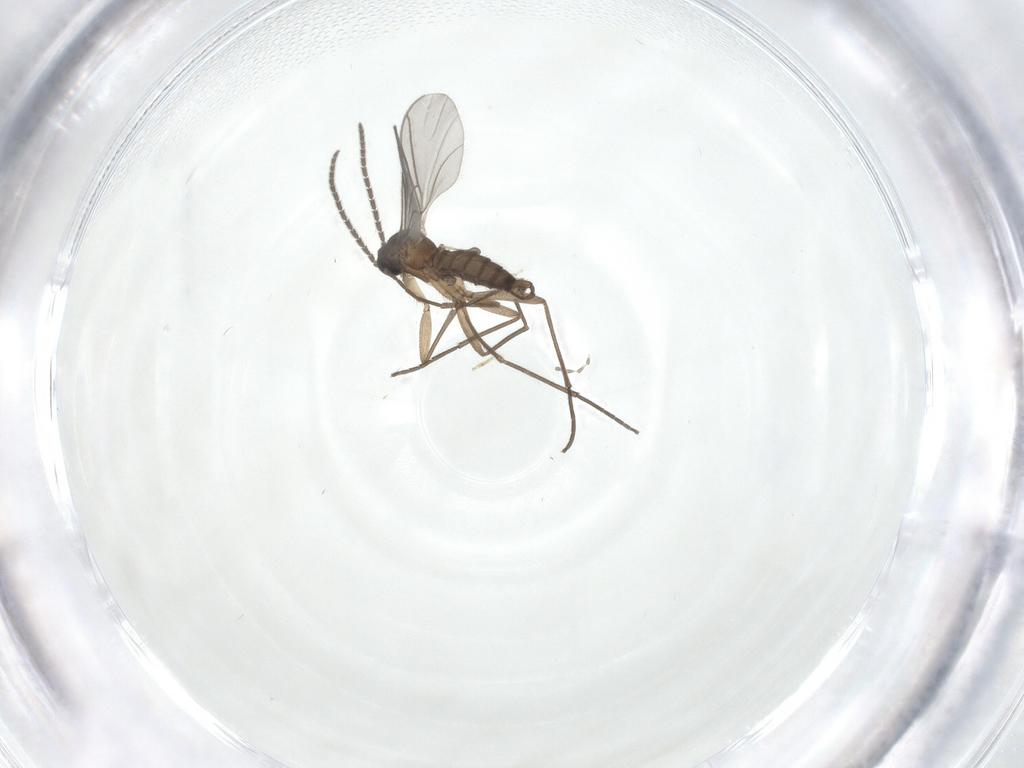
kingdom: Animalia
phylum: Arthropoda
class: Insecta
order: Diptera
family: Sciaridae
